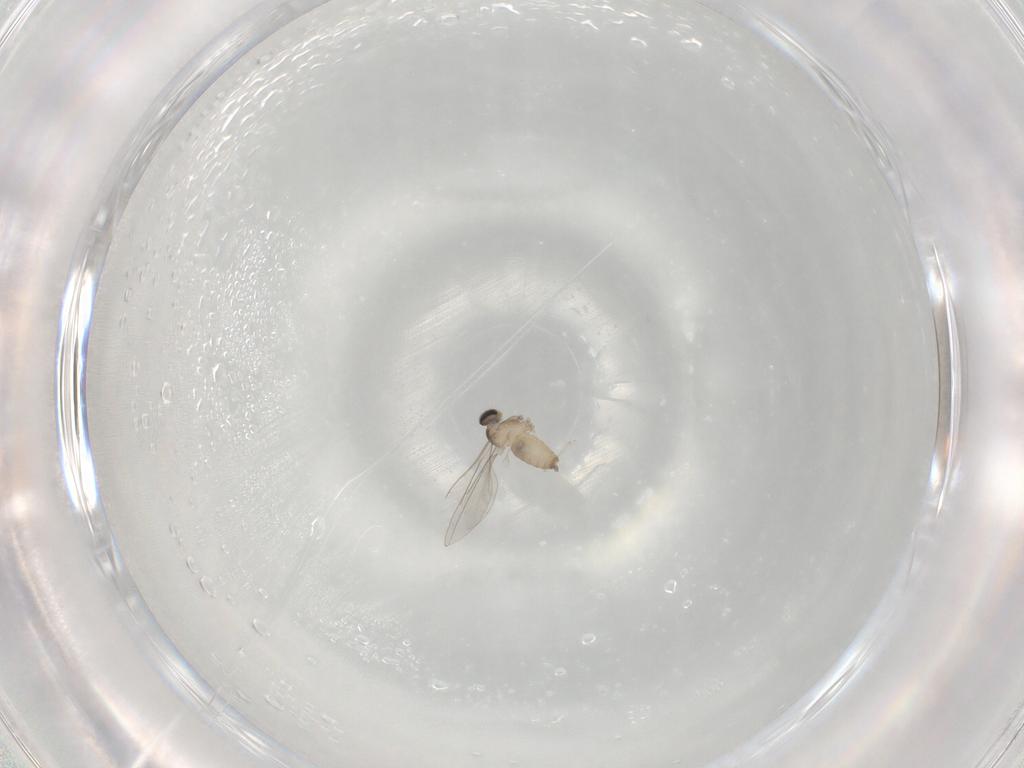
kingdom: Animalia
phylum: Arthropoda
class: Insecta
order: Diptera
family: Cecidomyiidae
